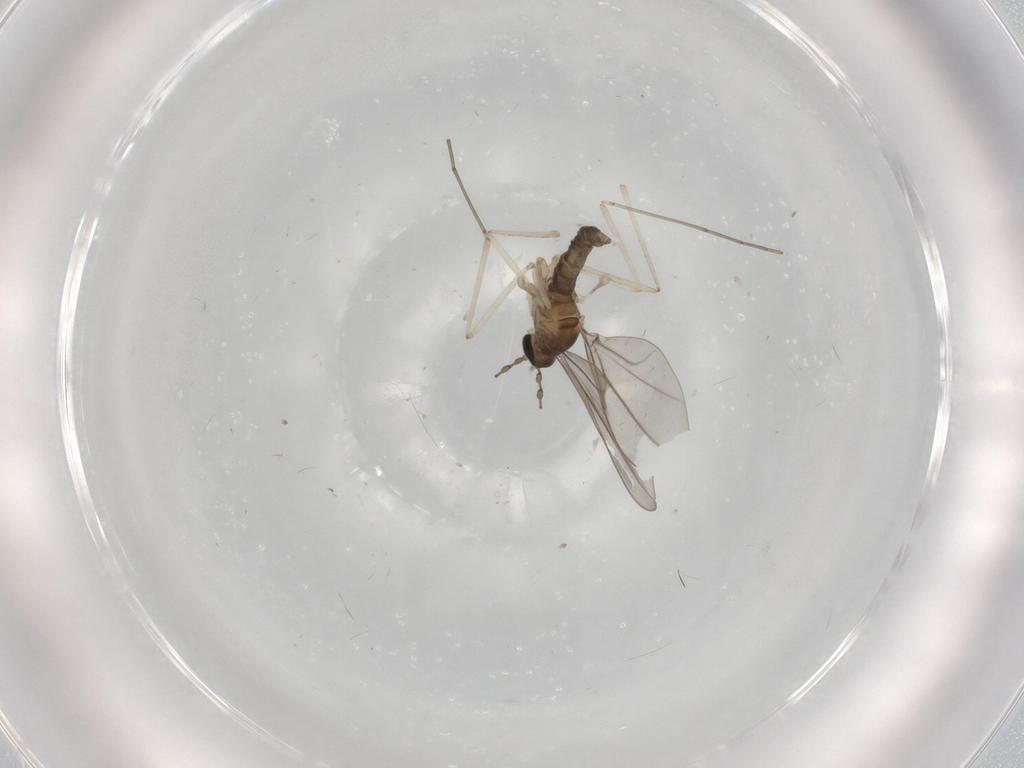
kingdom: Animalia
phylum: Arthropoda
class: Insecta
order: Diptera
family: Cecidomyiidae
